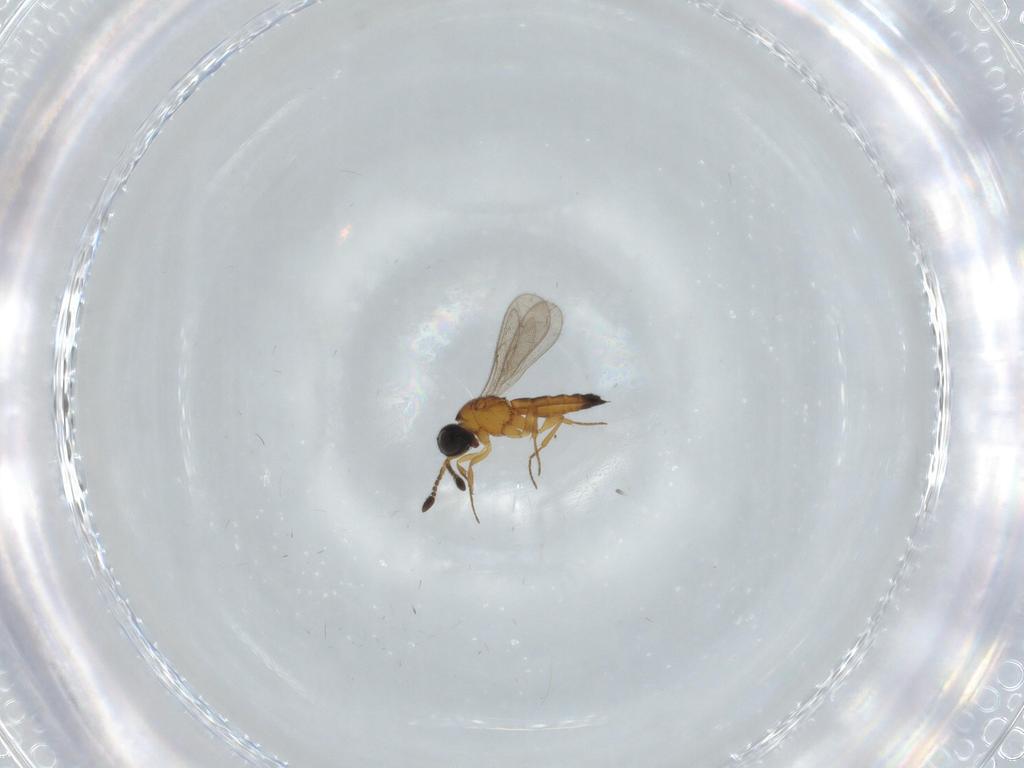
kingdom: Animalia
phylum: Arthropoda
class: Insecta
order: Hymenoptera
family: Scelionidae
